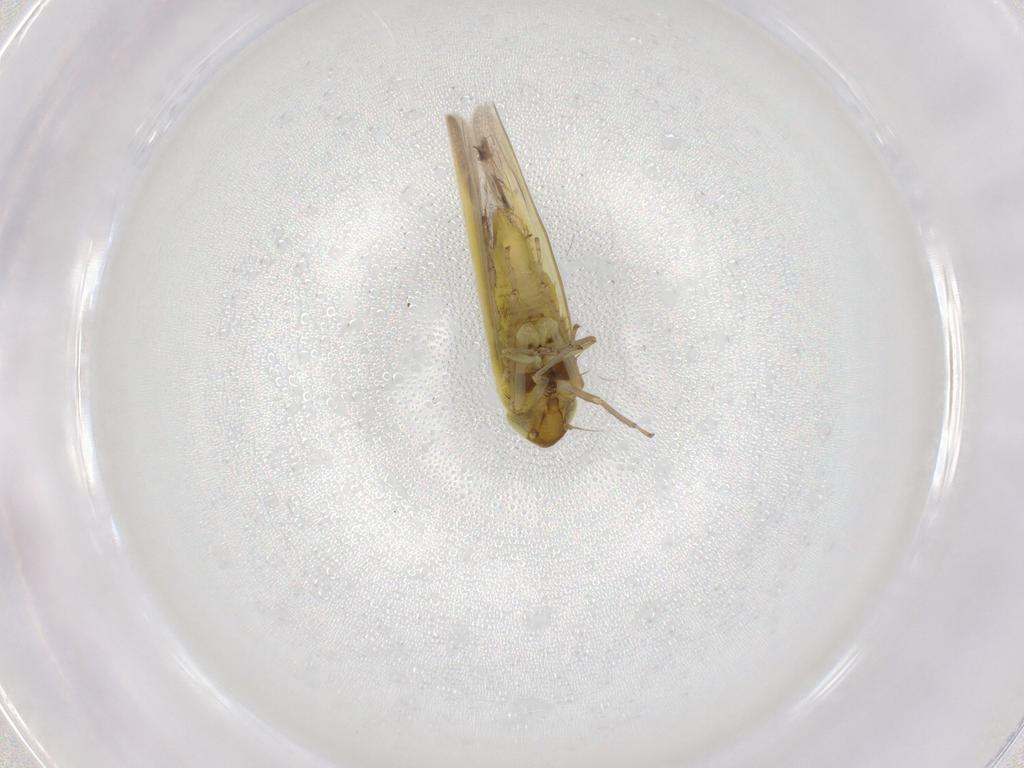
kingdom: Animalia
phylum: Arthropoda
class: Insecta
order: Hemiptera
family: Cicadellidae
